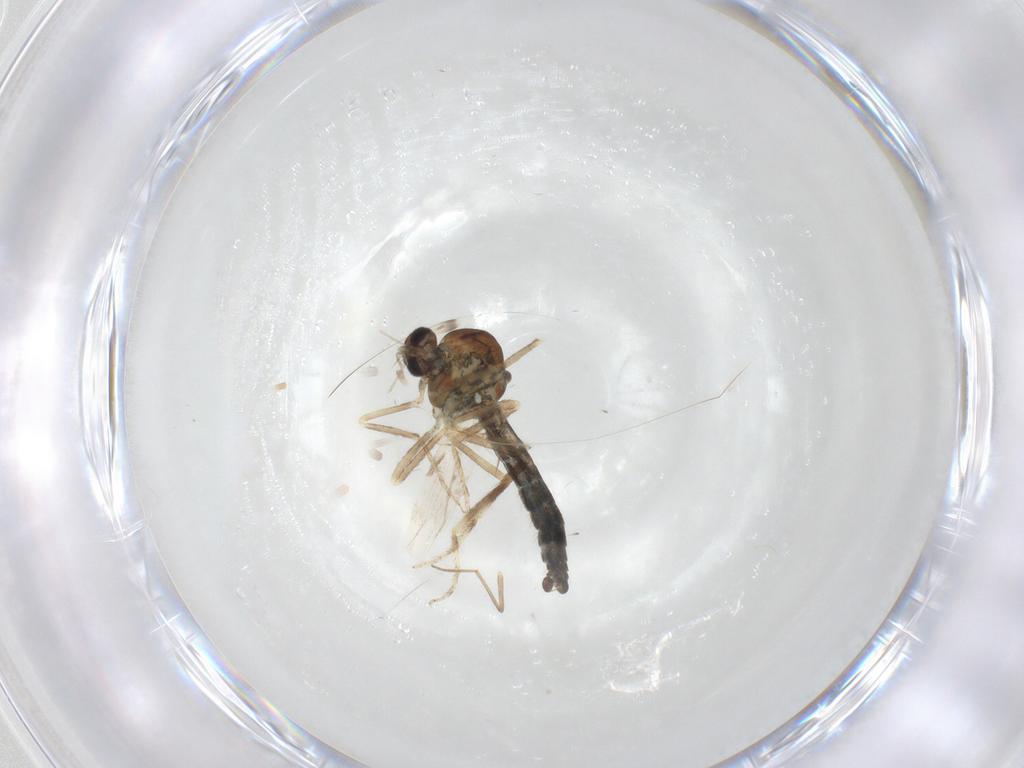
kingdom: Animalia
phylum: Arthropoda
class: Insecta
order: Diptera
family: Chironomidae
